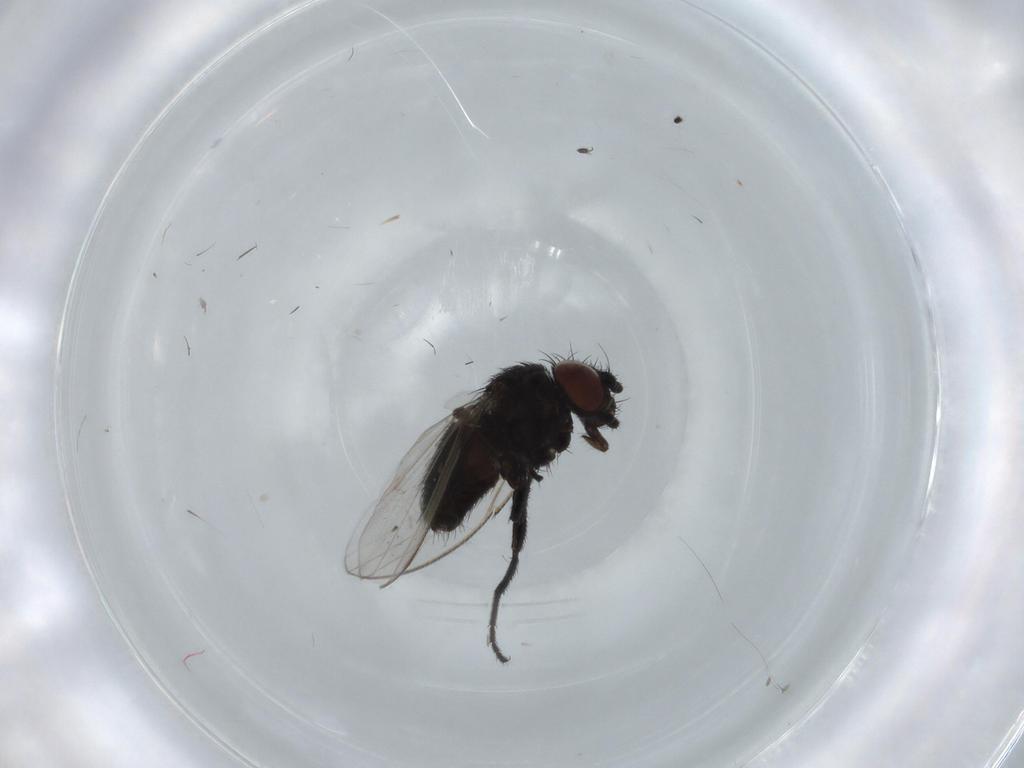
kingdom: Animalia
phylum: Arthropoda
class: Insecta
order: Diptera
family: Milichiidae
